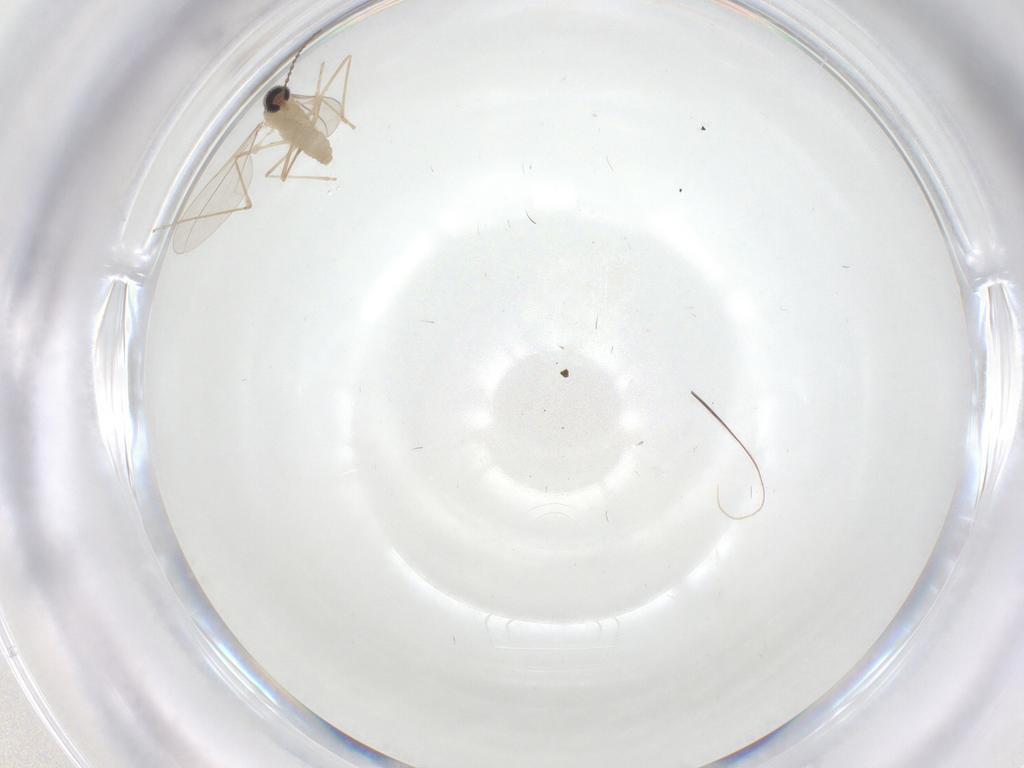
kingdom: Animalia
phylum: Arthropoda
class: Insecta
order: Diptera
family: Cecidomyiidae
